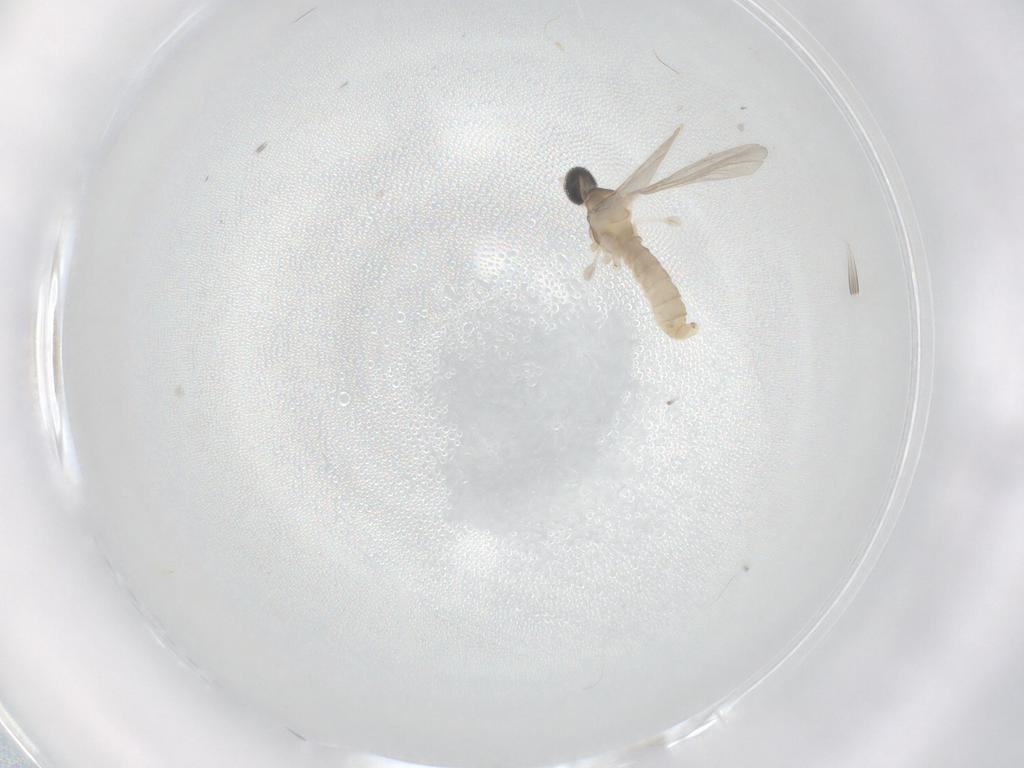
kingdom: Animalia
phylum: Arthropoda
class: Insecta
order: Diptera
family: Cecidomyiidae
